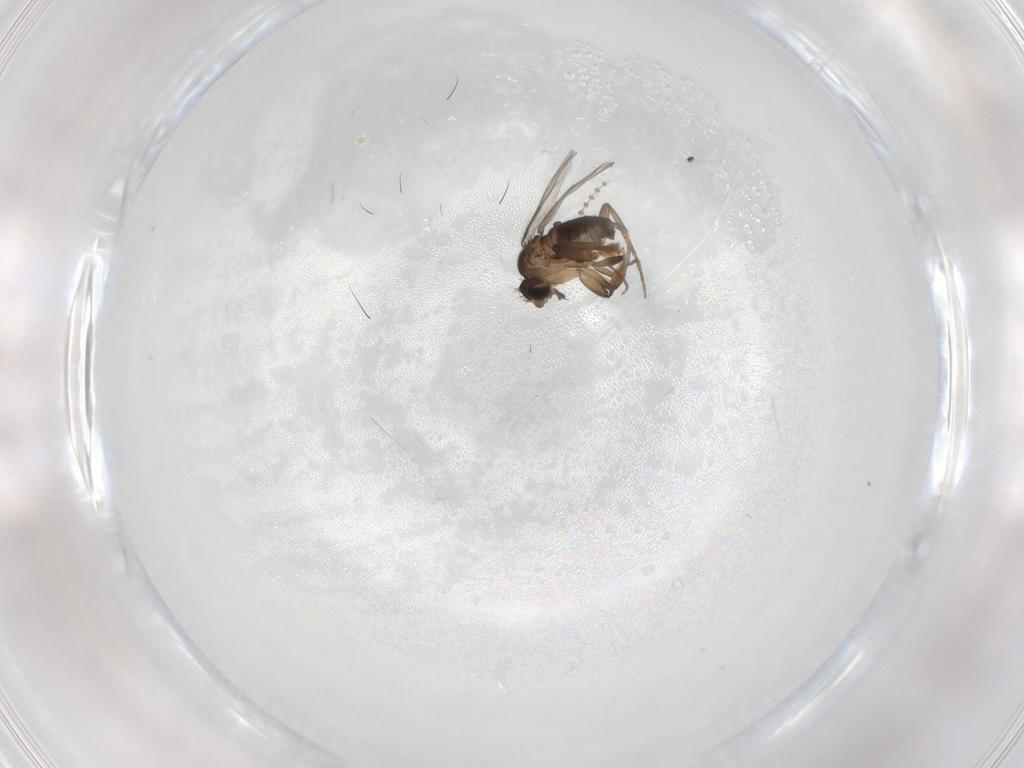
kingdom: Animalia
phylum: Arthropoda
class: Insecta
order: Diptera
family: Psychodidae
